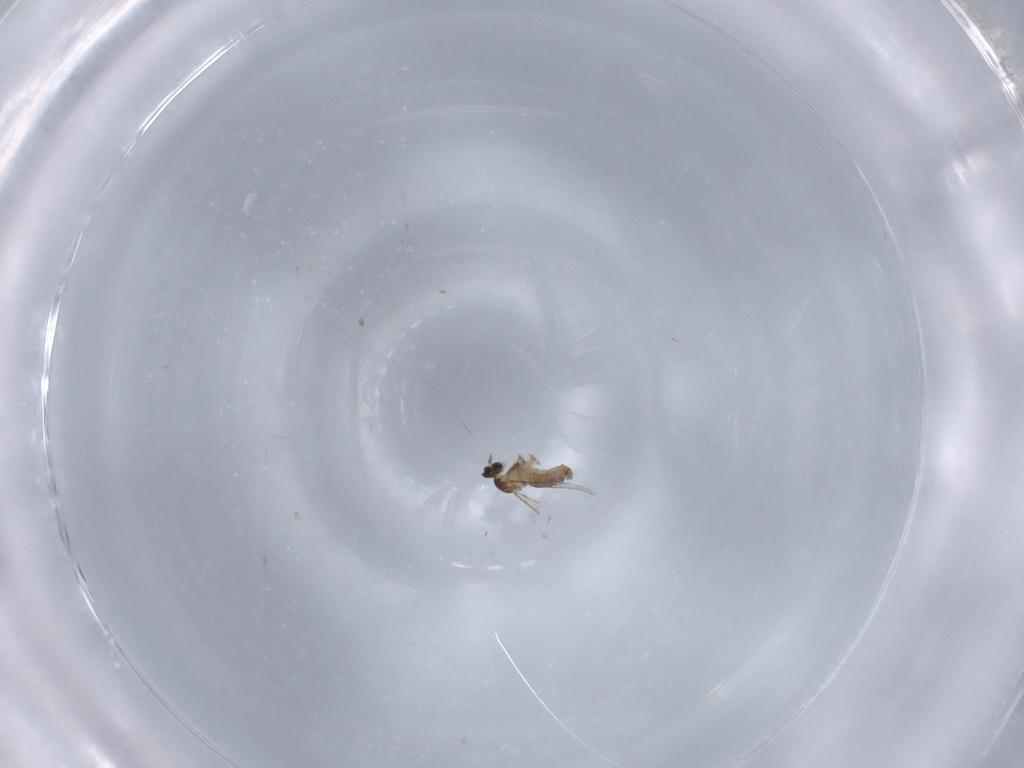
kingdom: Animalia
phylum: Arthropoda
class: Insecta
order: Diptera
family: Cecidomyiidae
